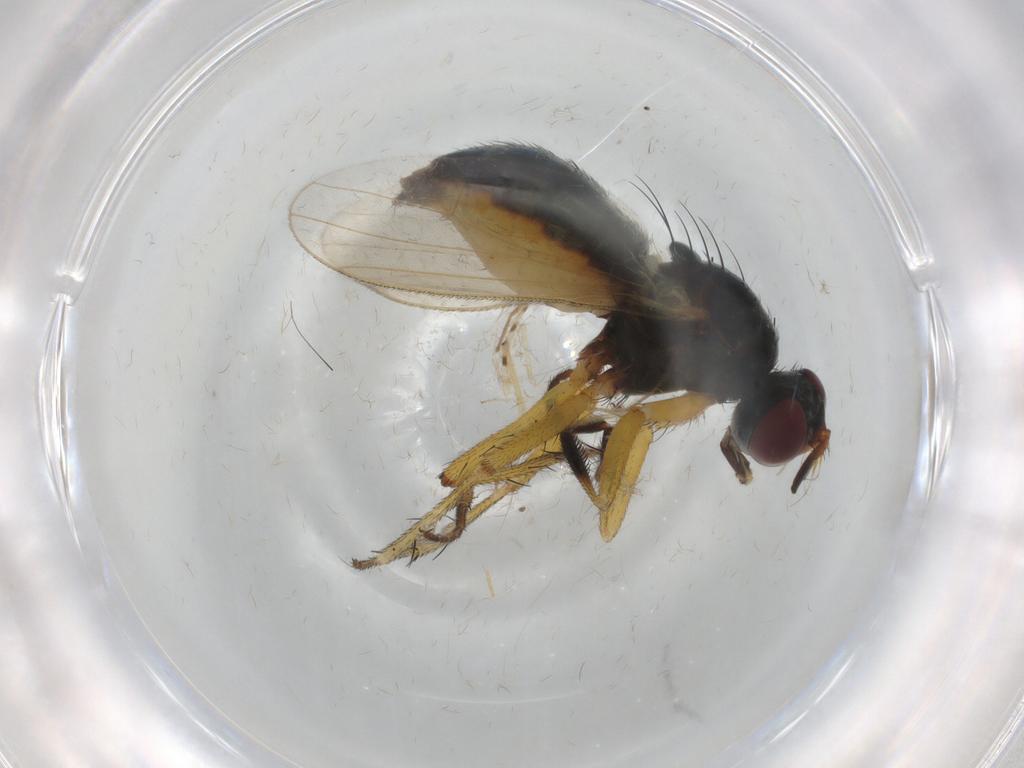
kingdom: Animalia
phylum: Arthropoda
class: Insecta
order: Diptera
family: Muscidae
